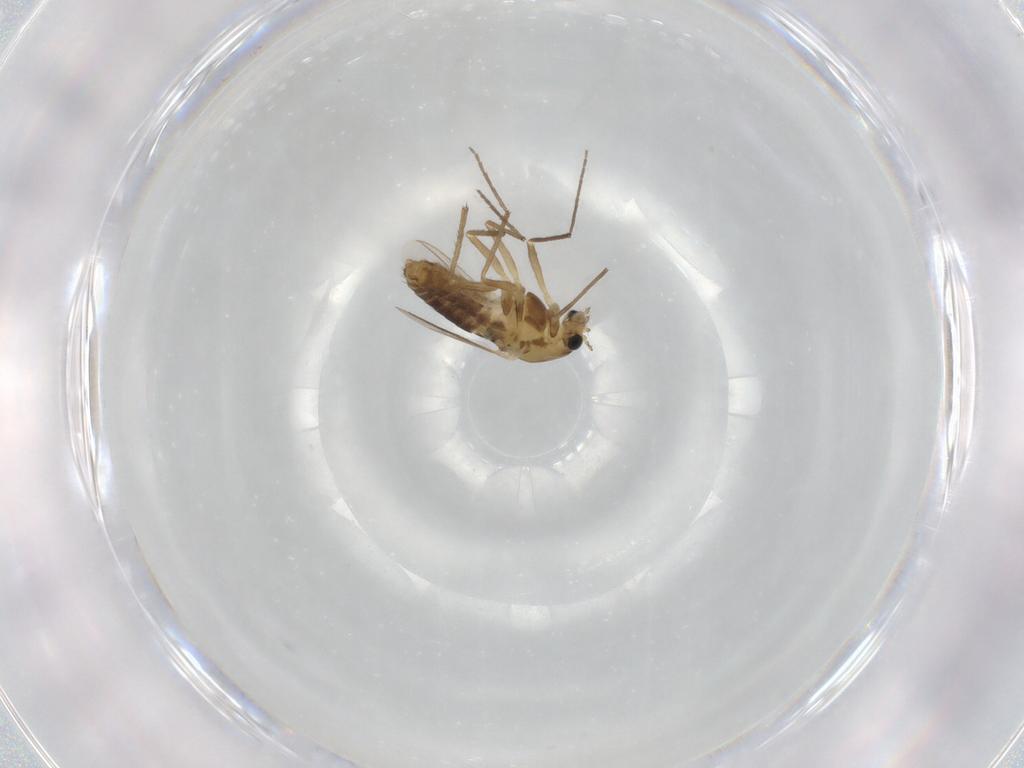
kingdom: Animalia
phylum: Arthropoda
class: Insecta
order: Diptera
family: Chironomidae
